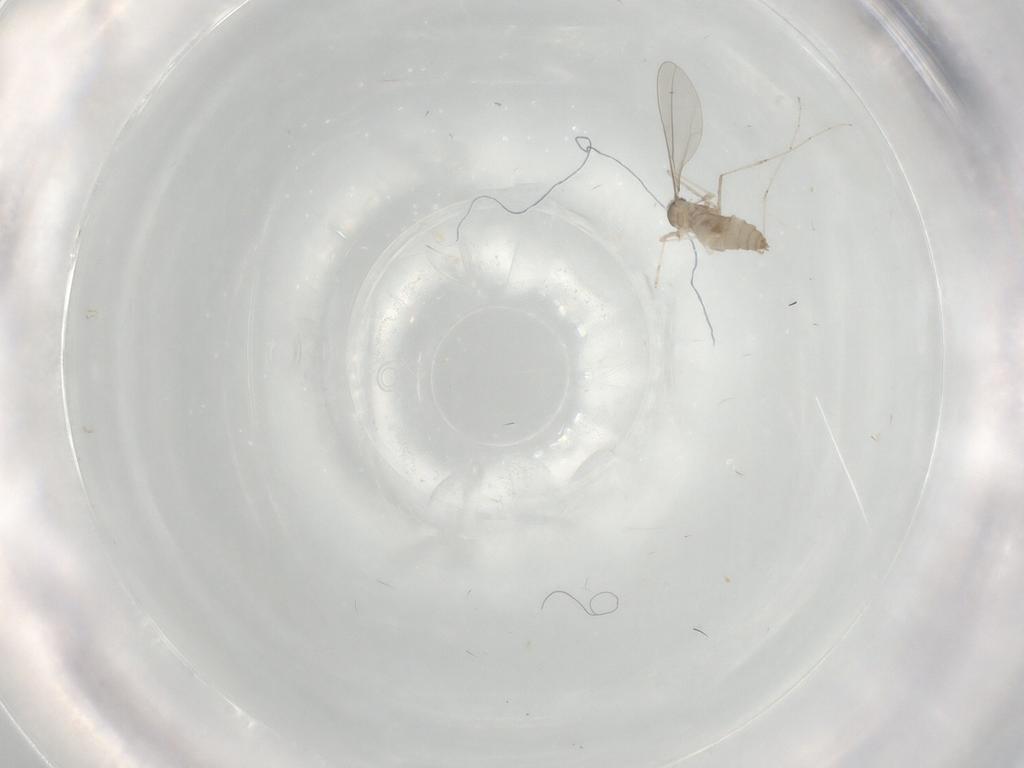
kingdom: Animalia
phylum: Arthropoda
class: Insecta
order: Diptera
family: Cecidomyiidae
